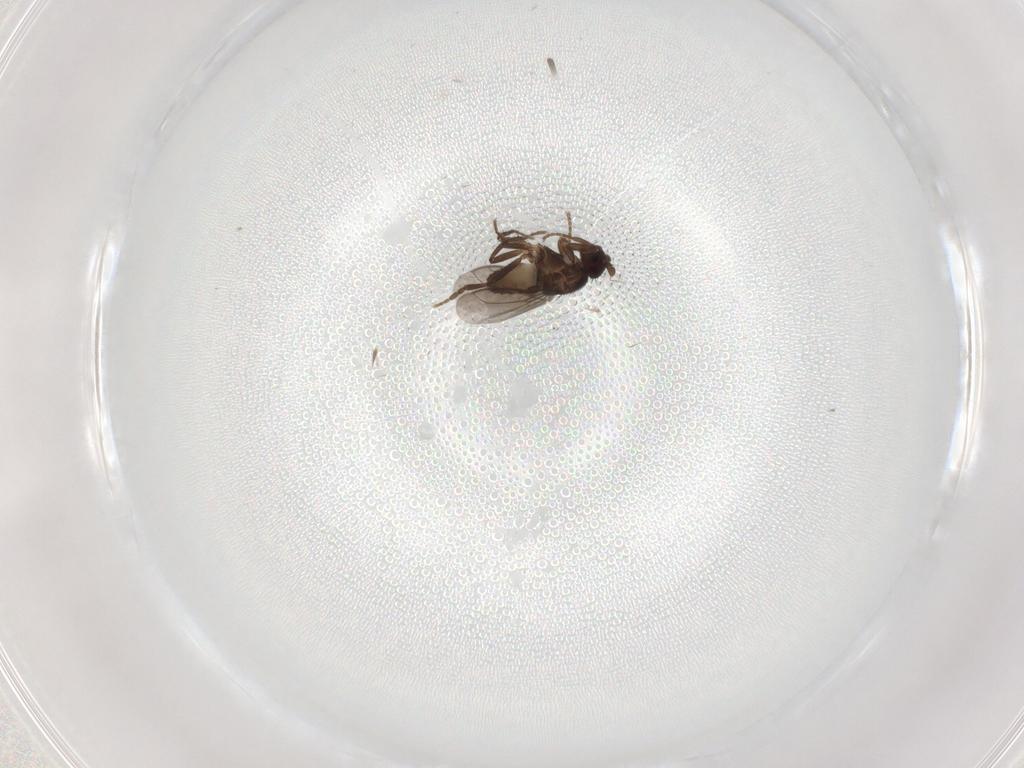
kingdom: Animalia
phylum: Arthropoda
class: Insecta
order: Diptera
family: Sphaeroceridae
